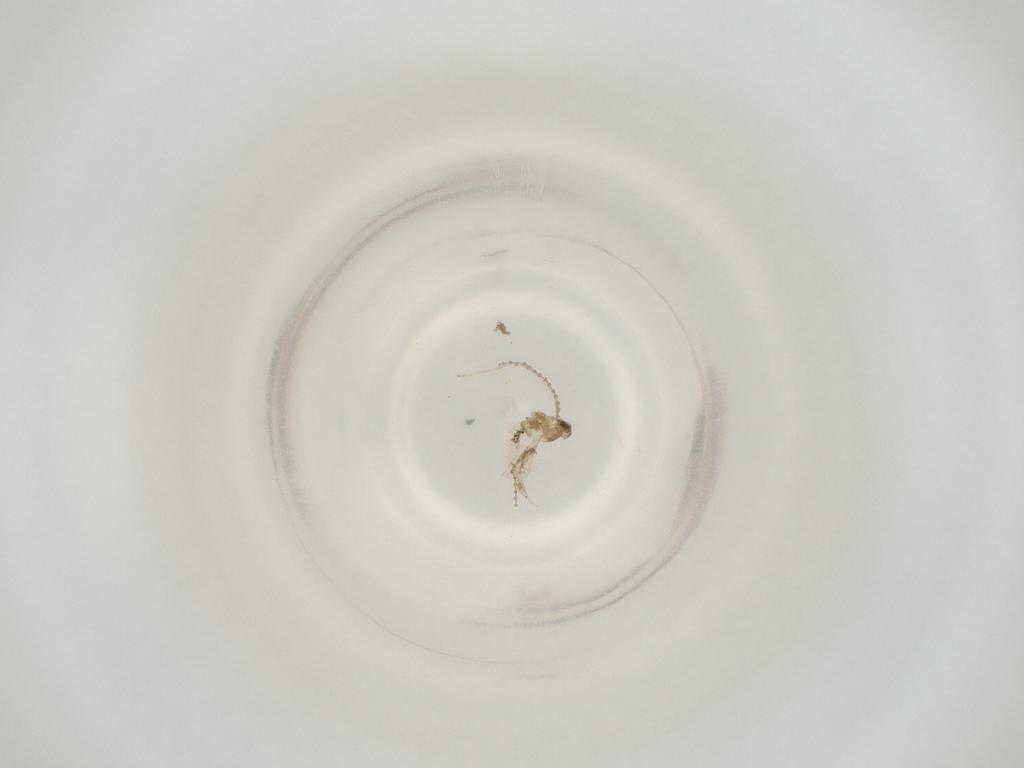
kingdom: Animalia
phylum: Arthropoda
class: Insecta
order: Diptera
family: Cecidomyiidae
